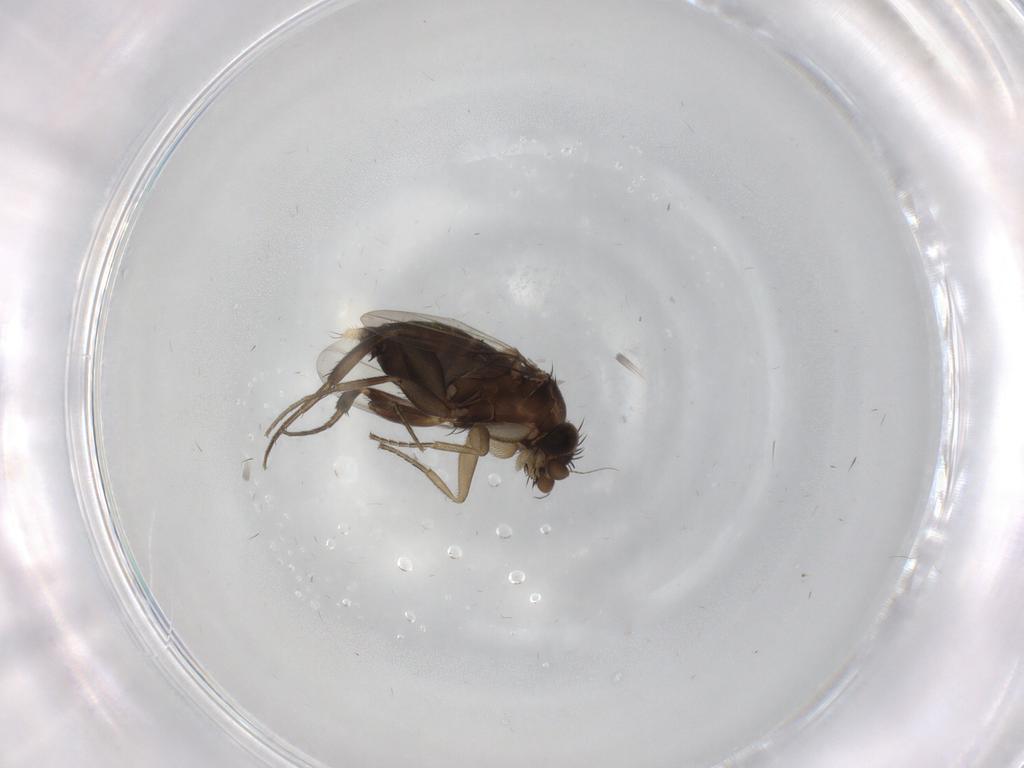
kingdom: Animalia
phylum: Arthropoda
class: Insecta
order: Diptera
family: Phoridae
